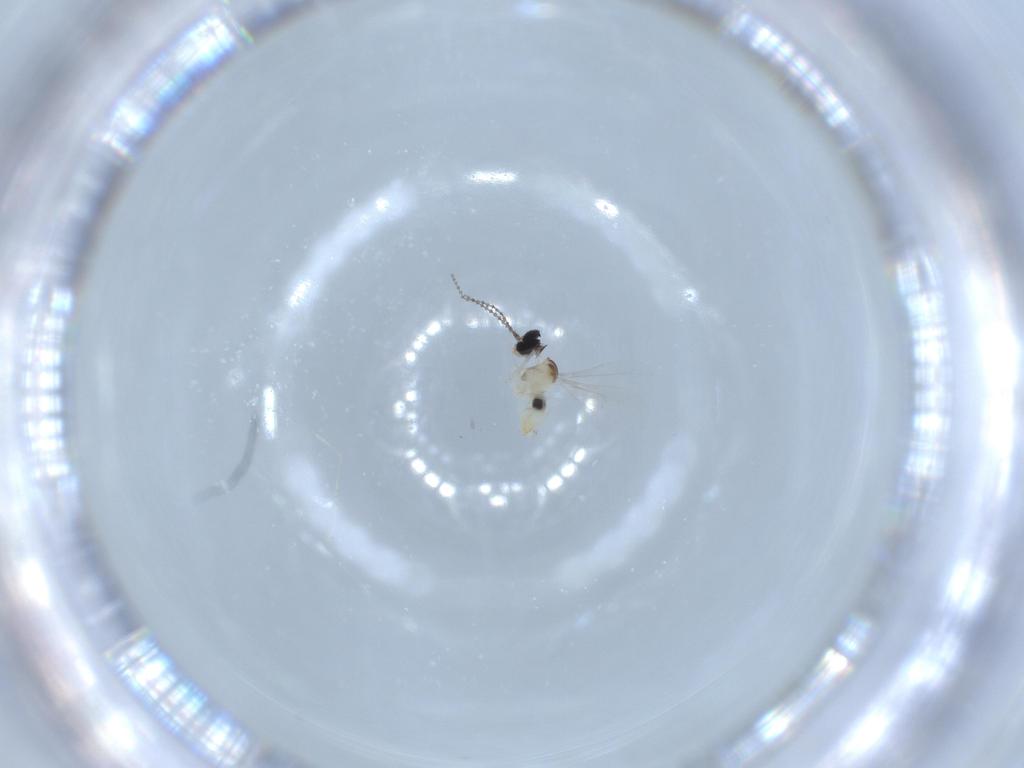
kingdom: Animalia
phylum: Arthropoda
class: Insecta
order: Diptera
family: Cecidomyiidae
